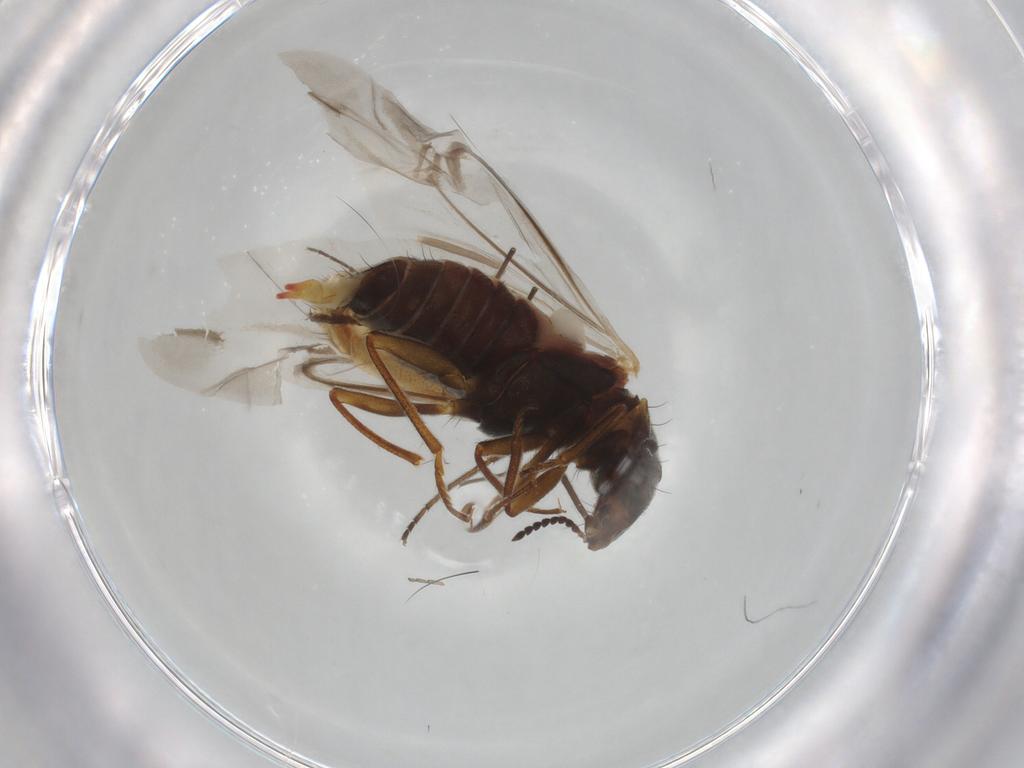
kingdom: Animalia
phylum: Arthropoda
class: Insecta
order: Coleoptera
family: Melyridae
